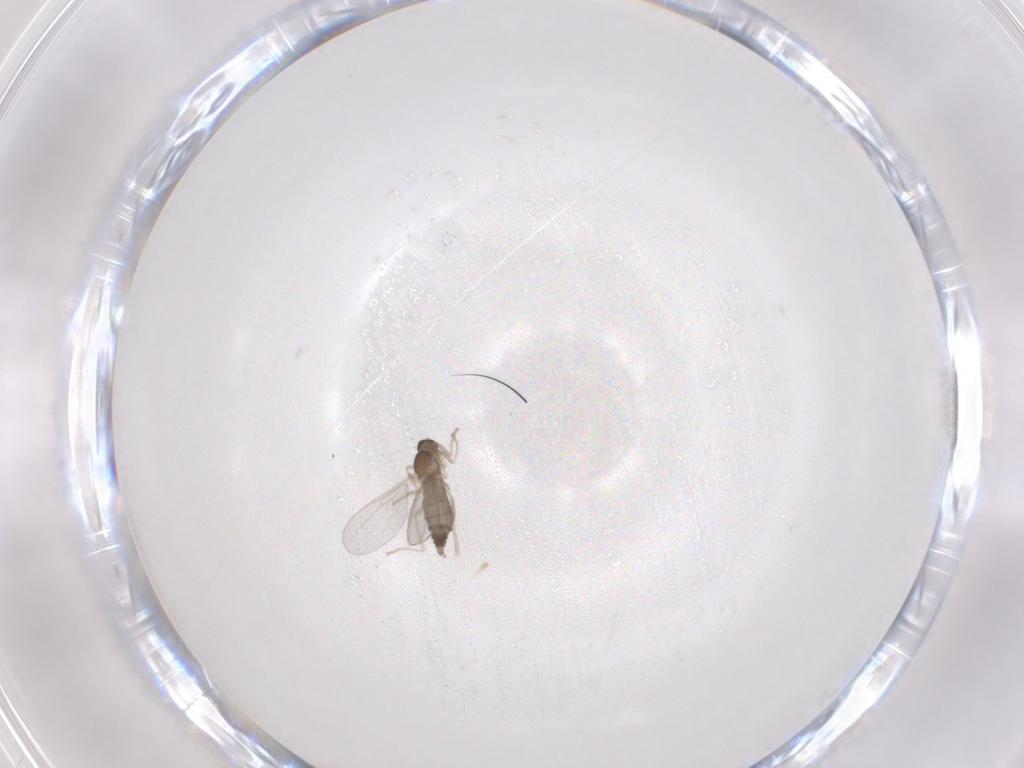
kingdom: Animalia
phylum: Arthropoda
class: Insecta
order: Diptera
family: Cecidomyiidae
